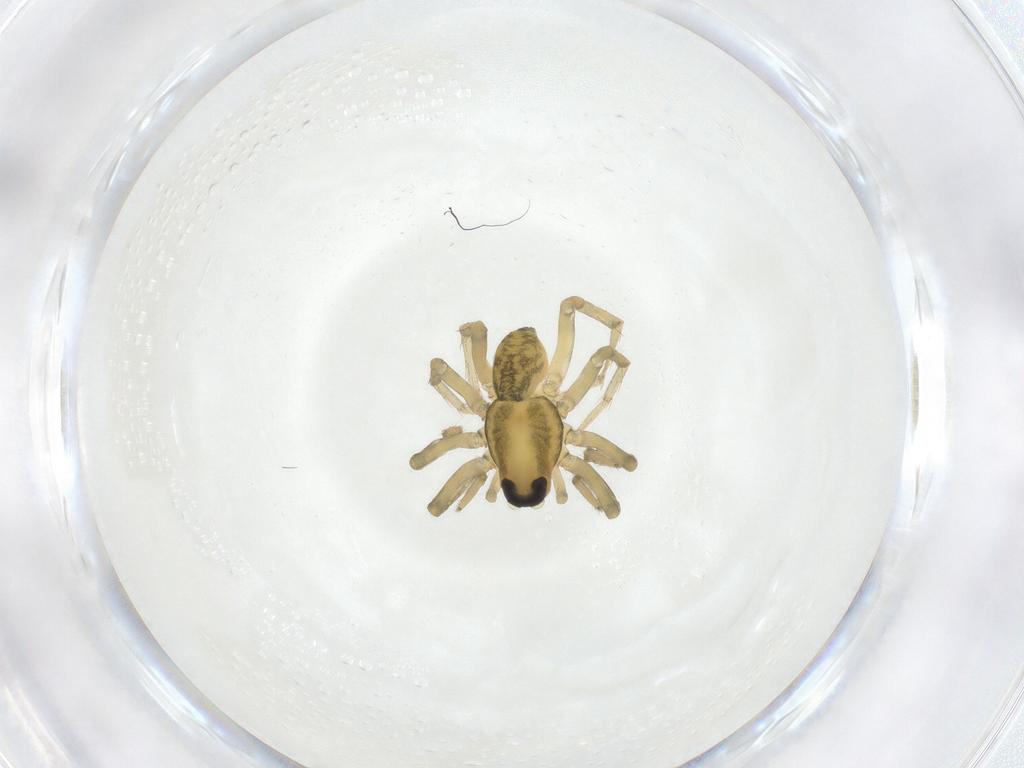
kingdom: Animalia
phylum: Arthropoda
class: Arachnida
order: Araneae
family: Lycosidae
